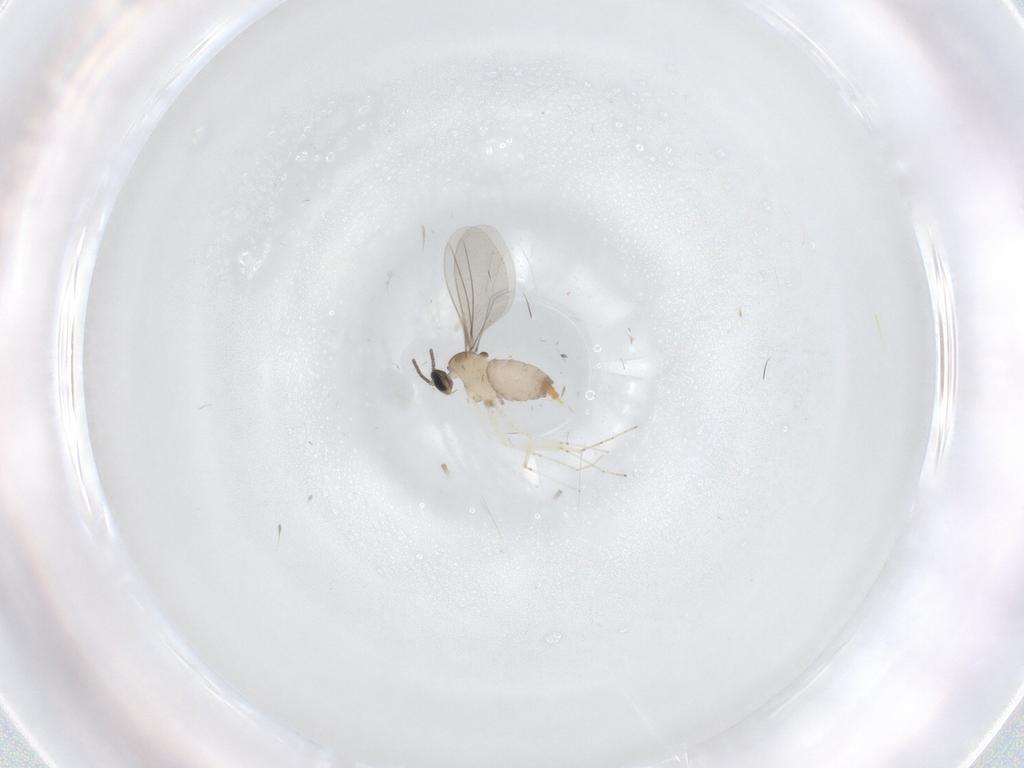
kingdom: Animalia
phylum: Arthropoda
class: Insecta
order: Diptera
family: Cecidomyiidae
